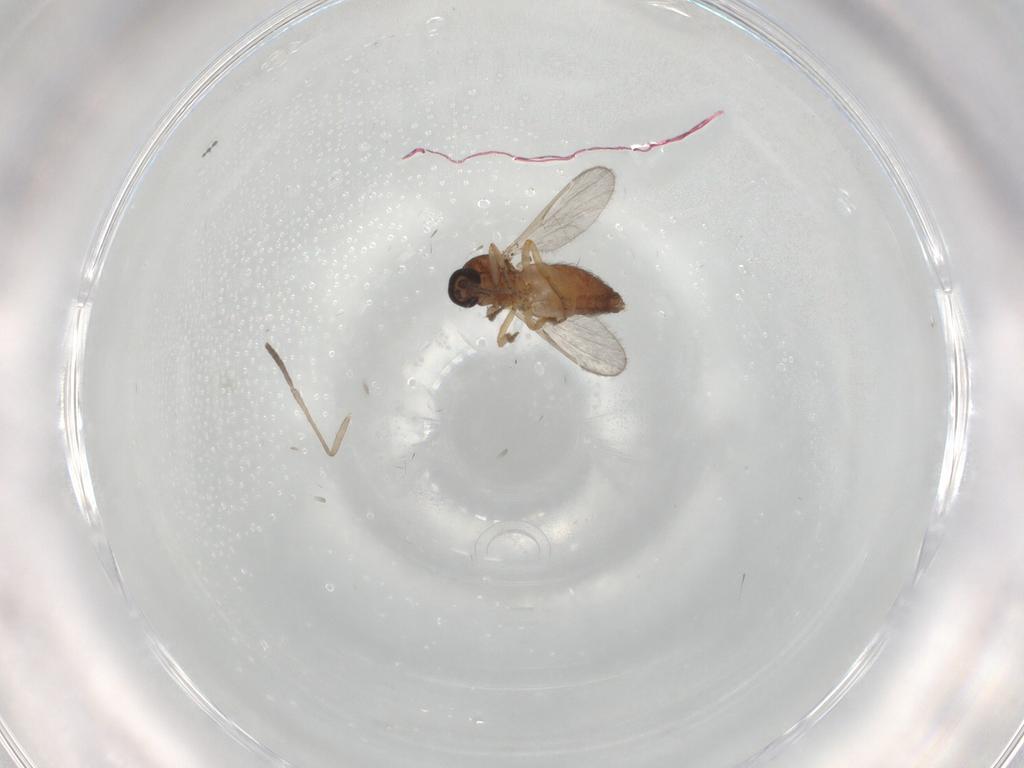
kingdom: Animalia
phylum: Arthropoda
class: Insecta
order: Diptera
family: Ceratopogonidae
